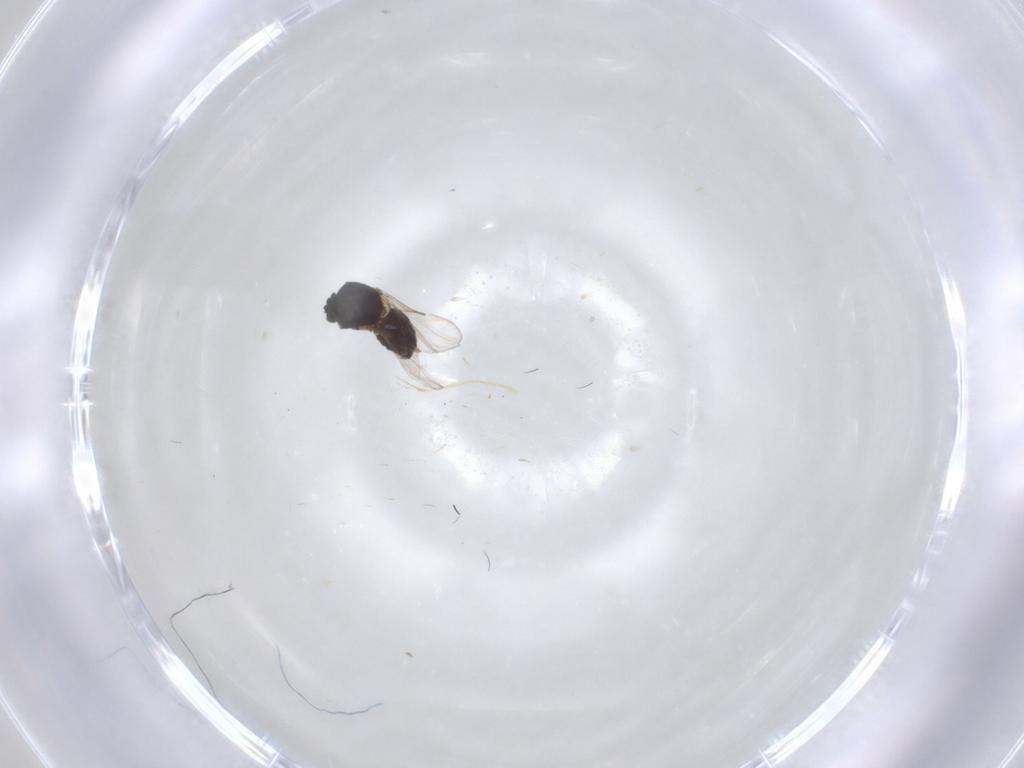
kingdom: Animalia
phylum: Arthropoda
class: Insecta
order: Diptera
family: Ceratopogonidae
